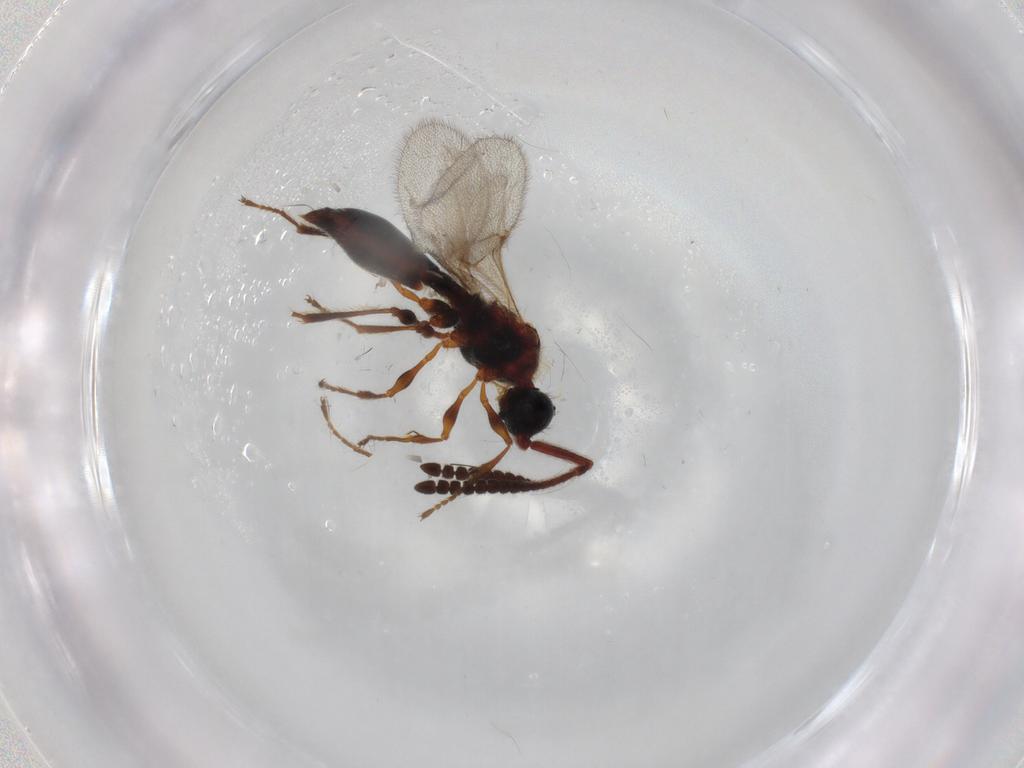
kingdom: Animalia
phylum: Arthropoda
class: Insecta
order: Hymenoptera
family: Diapriidae
